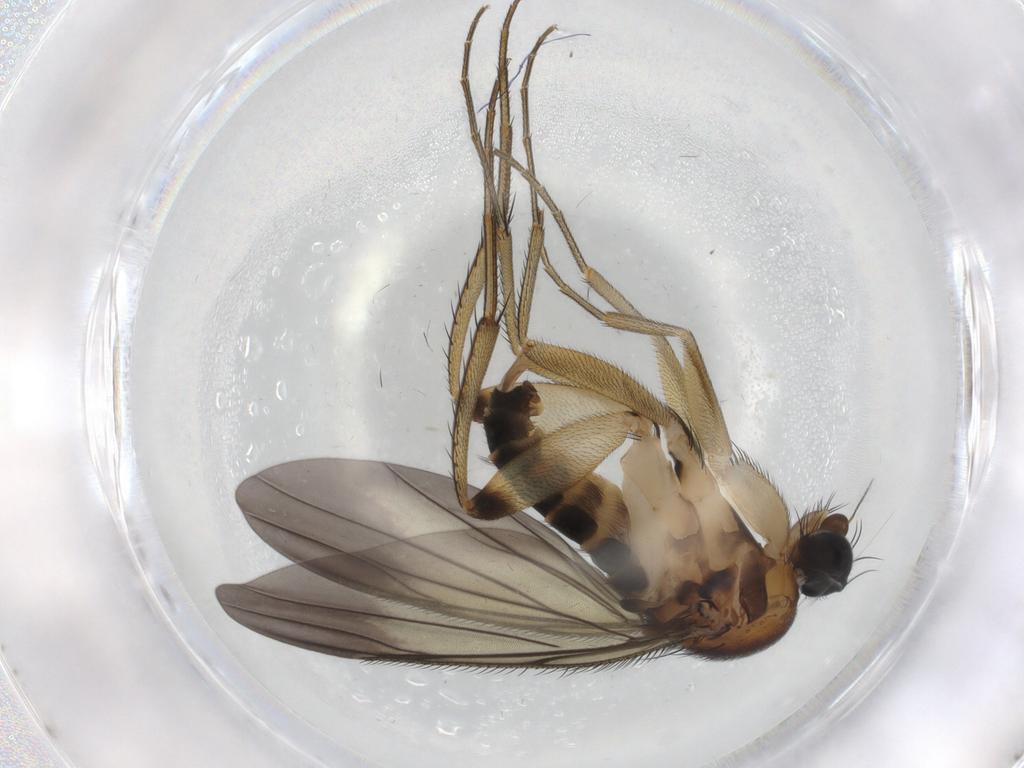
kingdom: Animalia
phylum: Arthropoda
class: Insecta
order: Diptera
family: Phoridae
